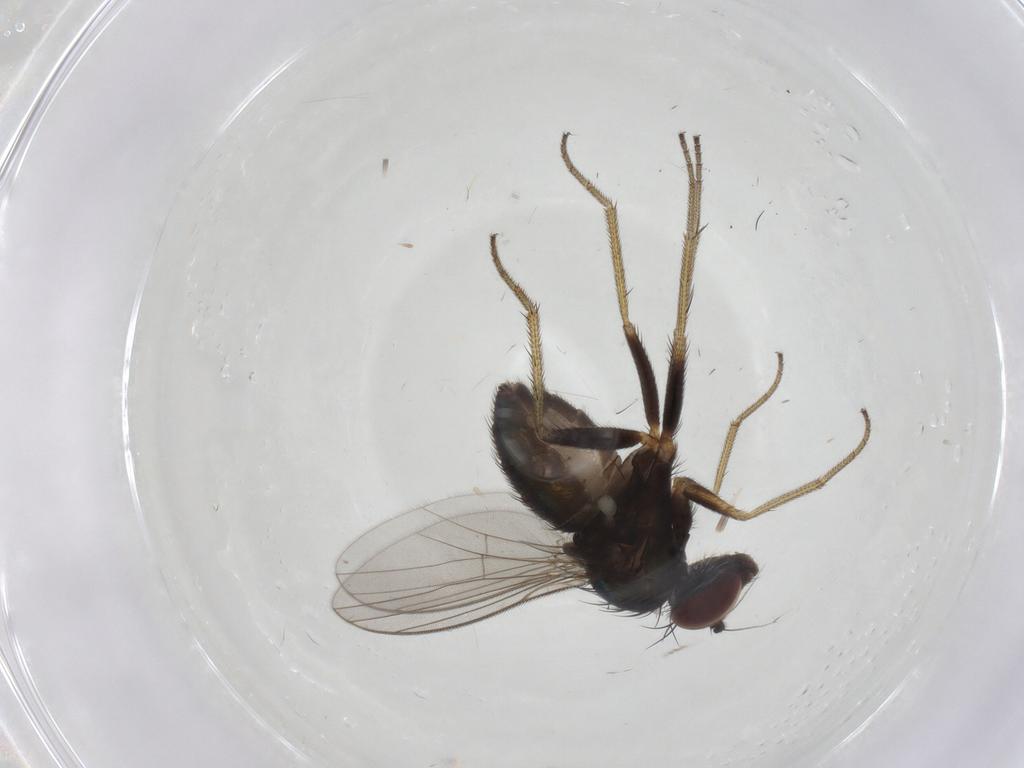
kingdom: Animalia
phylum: Arthropoda
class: Insecta
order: Diptera
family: Dolichopodidae
